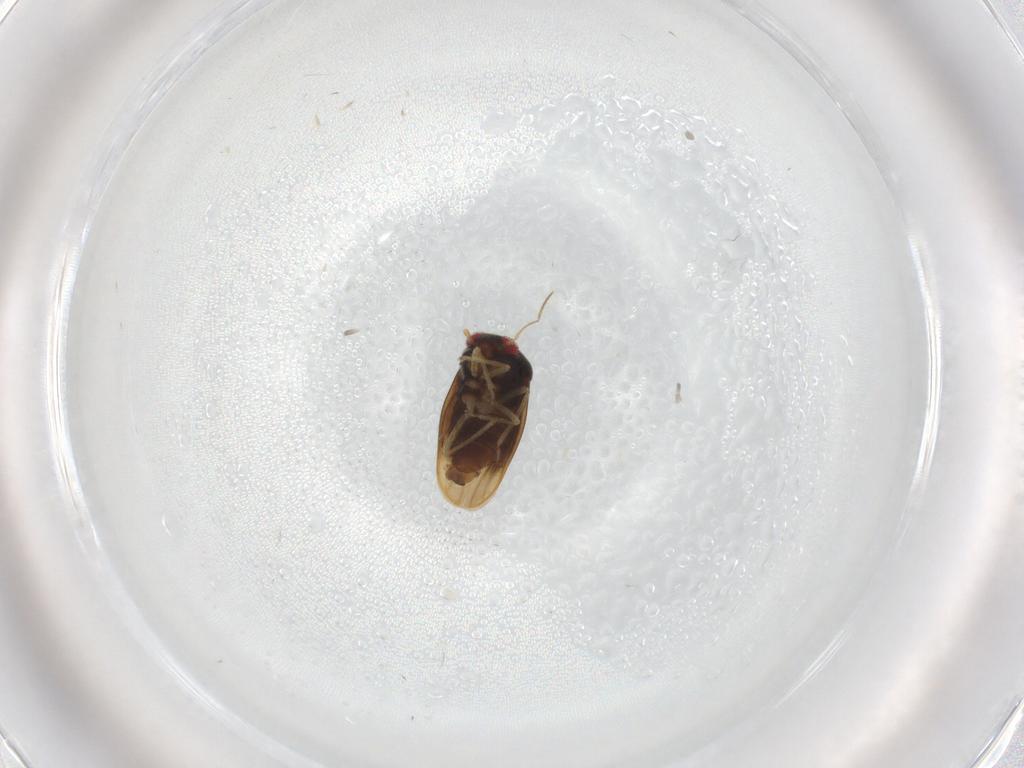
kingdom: Animalia
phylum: Arthropoda
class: Insecta
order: Hemiptera
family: Schizopteridae
